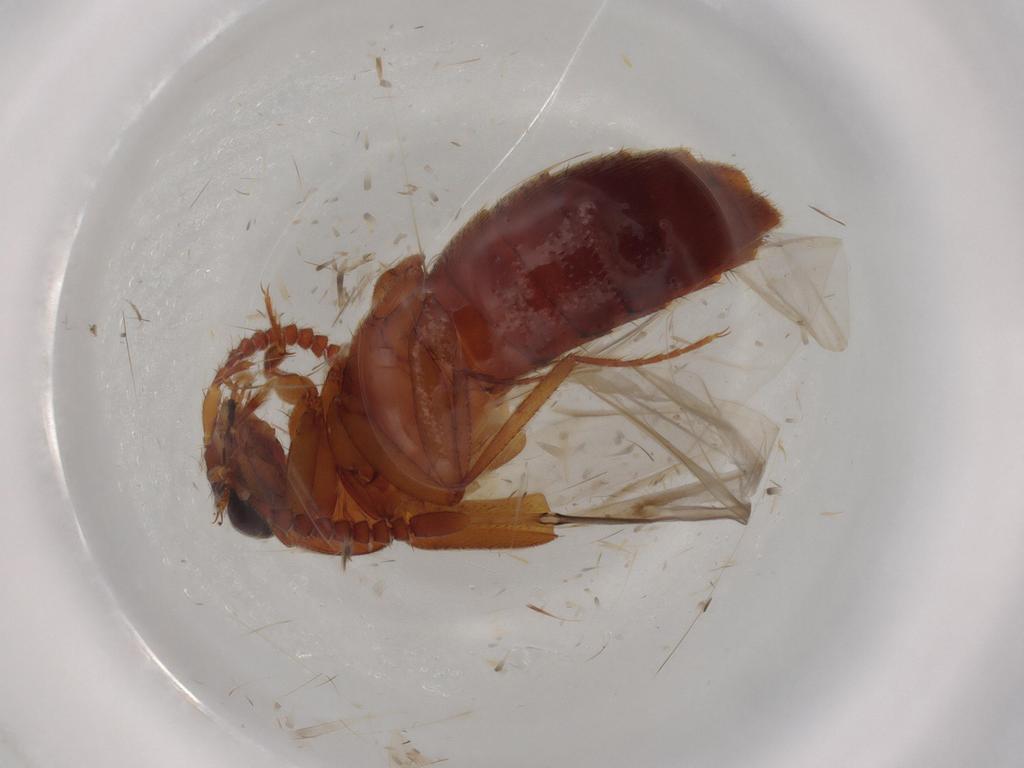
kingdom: Animalia
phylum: Arthropoda
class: Insecta
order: Coleoptera
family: Staphylinidae
